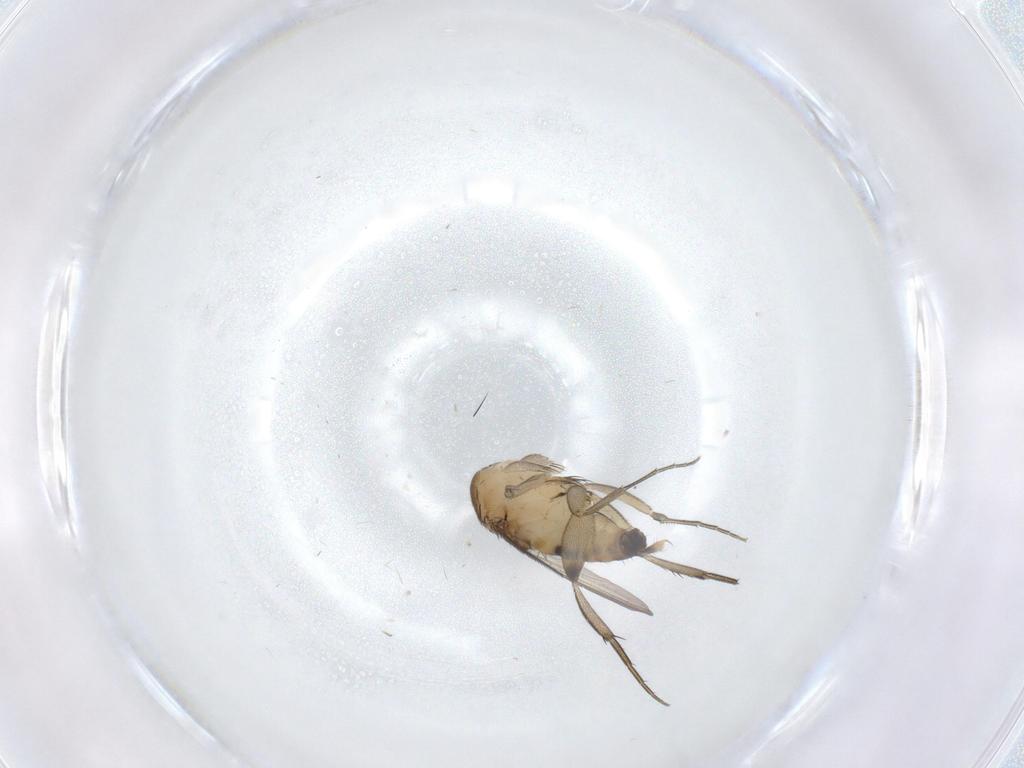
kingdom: Animalia
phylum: Arthropoda
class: Insecta
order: Diptera
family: Phoridae
